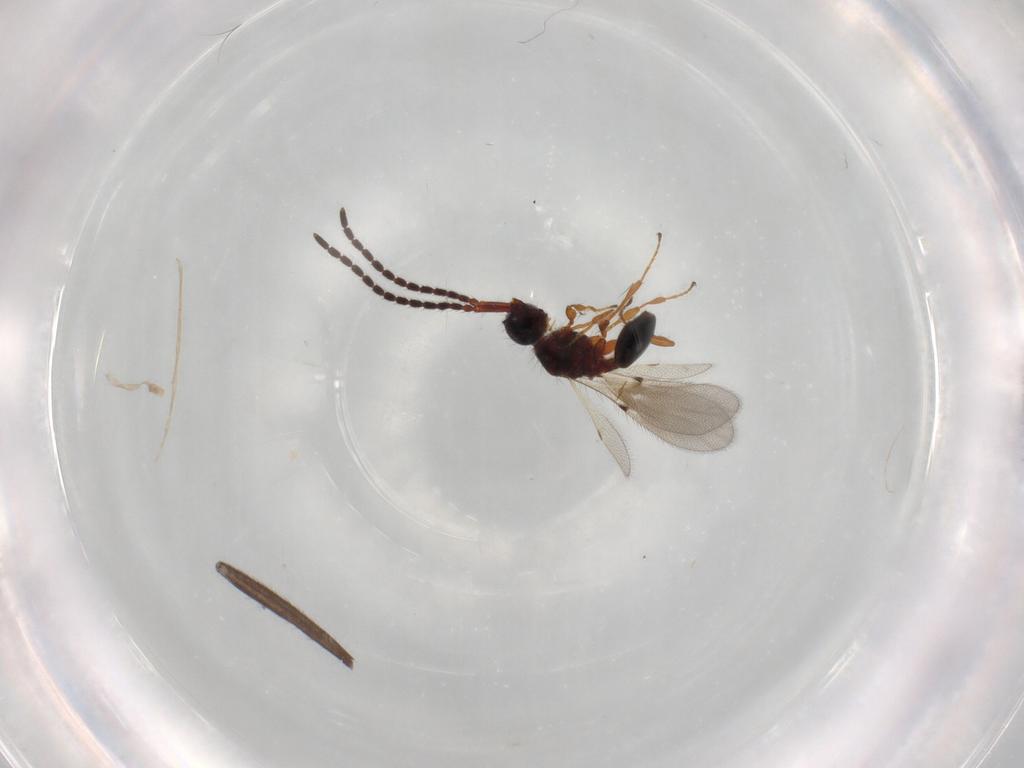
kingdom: Animalia
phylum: Arthropoda
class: Insecta
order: Hymenoptera
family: Diapriidae
